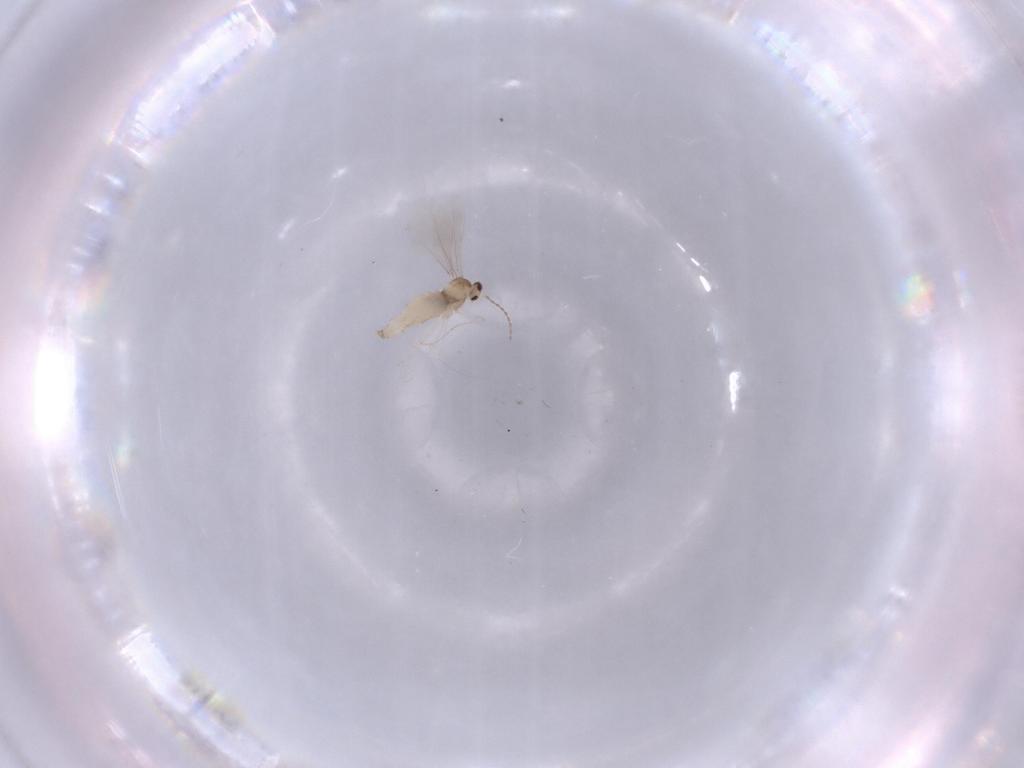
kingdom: Animalia
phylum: Arthropoda
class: Insecta
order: Diptera
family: Cecidomyiidae
